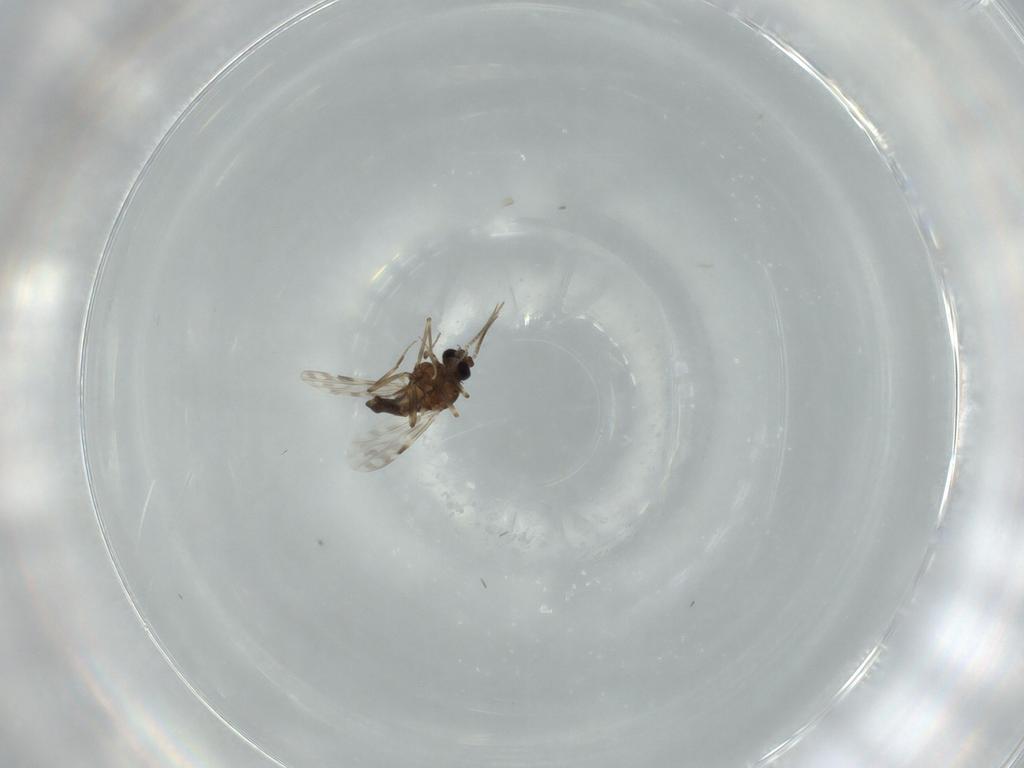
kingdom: Animalia
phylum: Arthropoda
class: Insecta
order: Diptera
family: Ceratopogonidae
